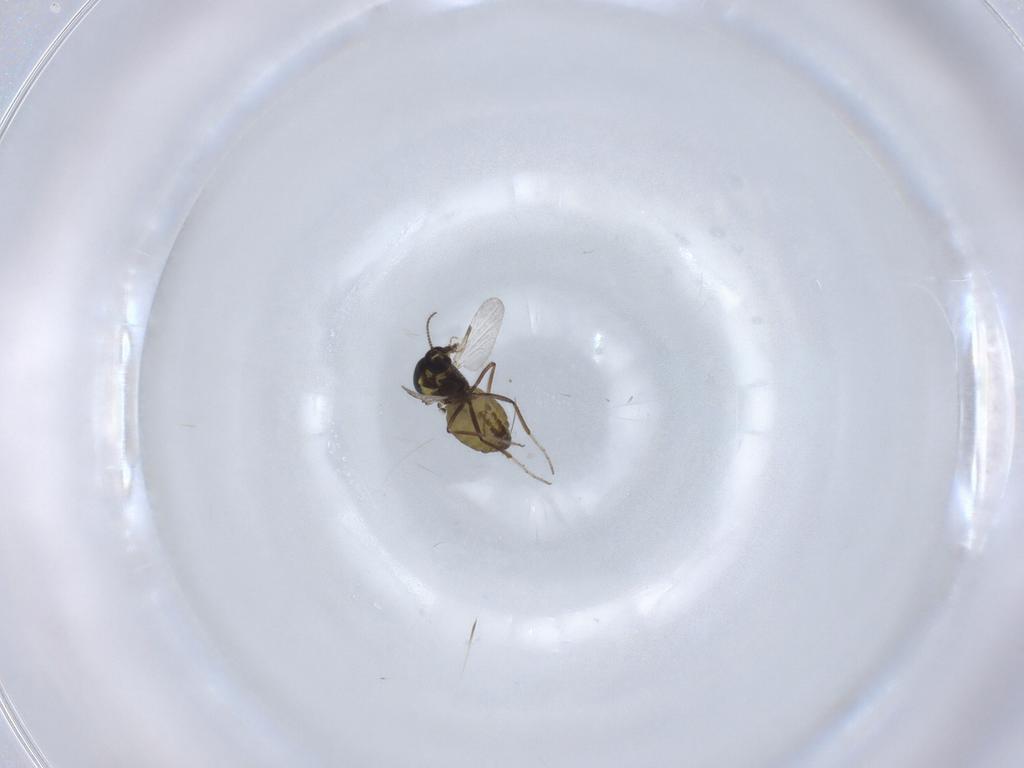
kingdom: Animalia
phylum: Arthropoda
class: Insecta
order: Diptera
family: Ceratopogonidae
